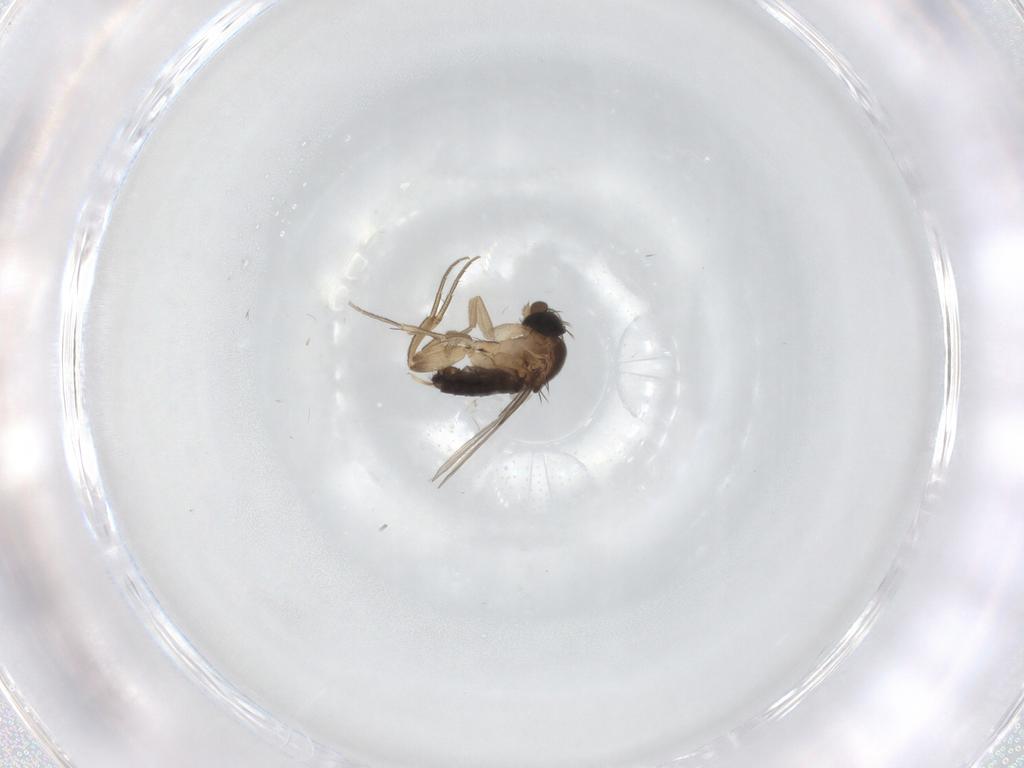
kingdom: Animalia
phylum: Arthropoda
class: Insecta
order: Diptera
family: Phoridae
